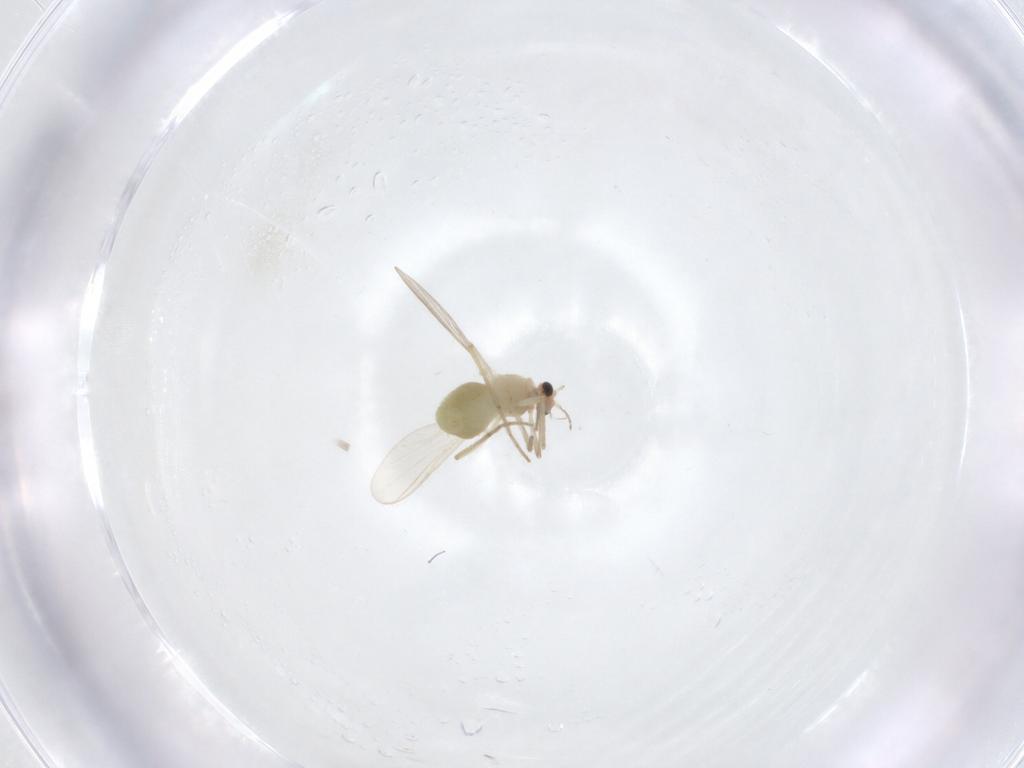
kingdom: Animalia
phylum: Arthropoda
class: Insecta
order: Diptera
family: Chironomidae
